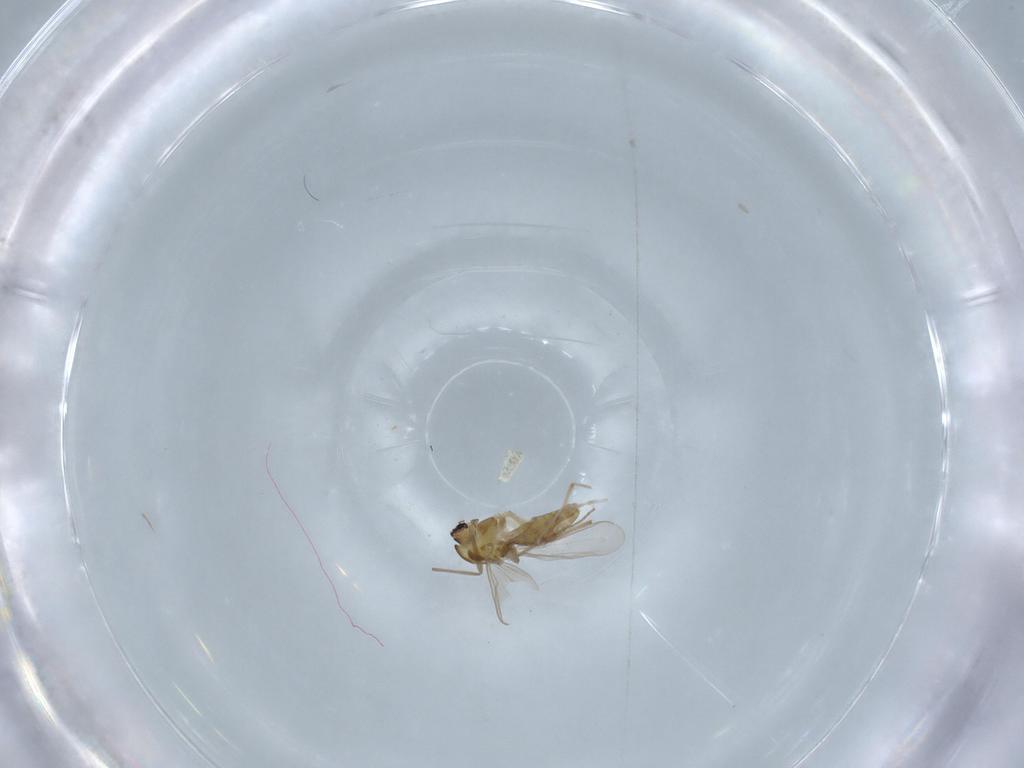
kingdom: Animalia
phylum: Arthropoda
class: Insecta
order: Diptera
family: Chironomidae
